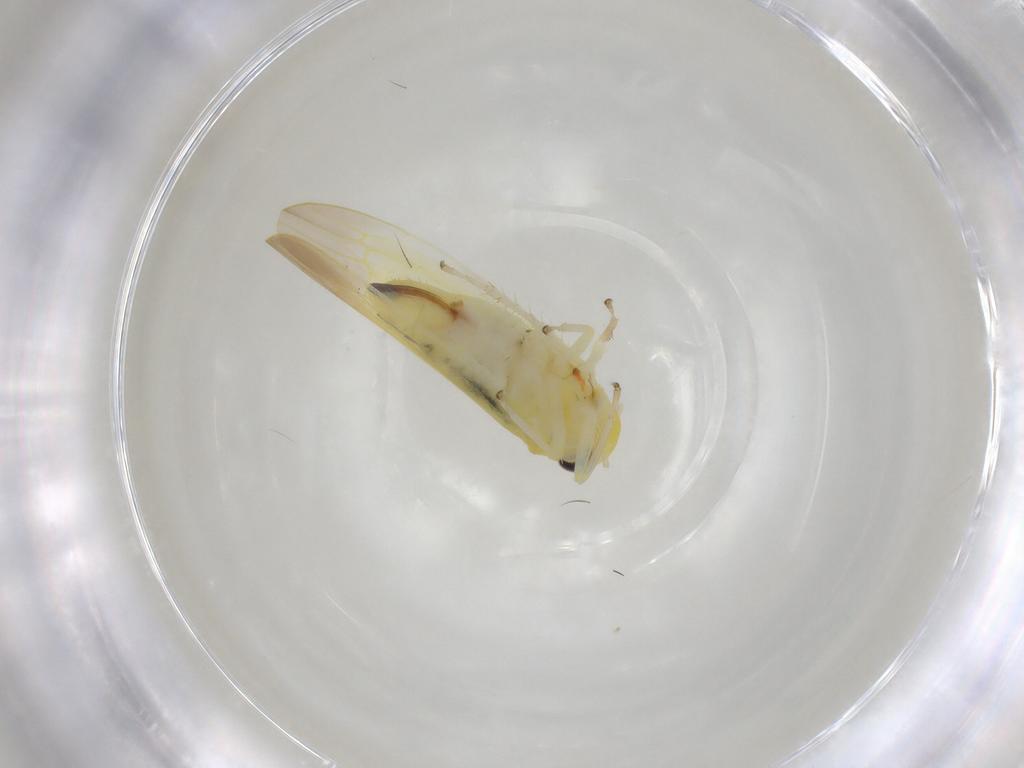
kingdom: Animalia
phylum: Arthropoda
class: Insecta
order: Hemiptera
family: Cicadellidae
